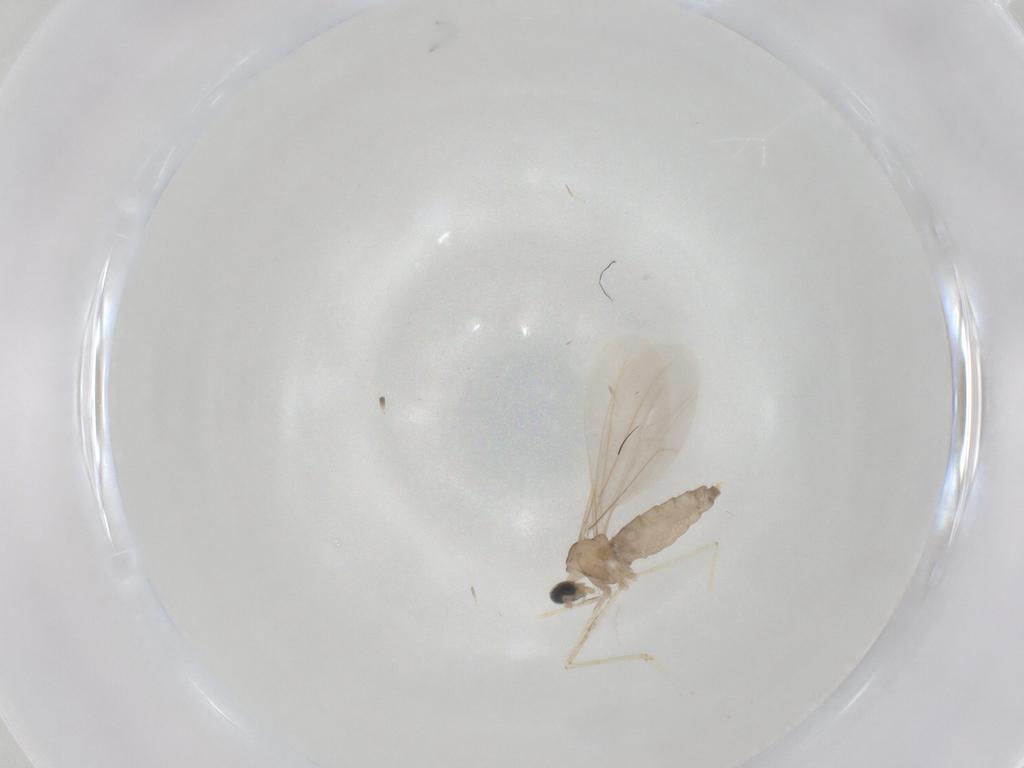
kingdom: Animalia
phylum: Arthropoda
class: Insecta
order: Diptera
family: Cecidomyiidae
